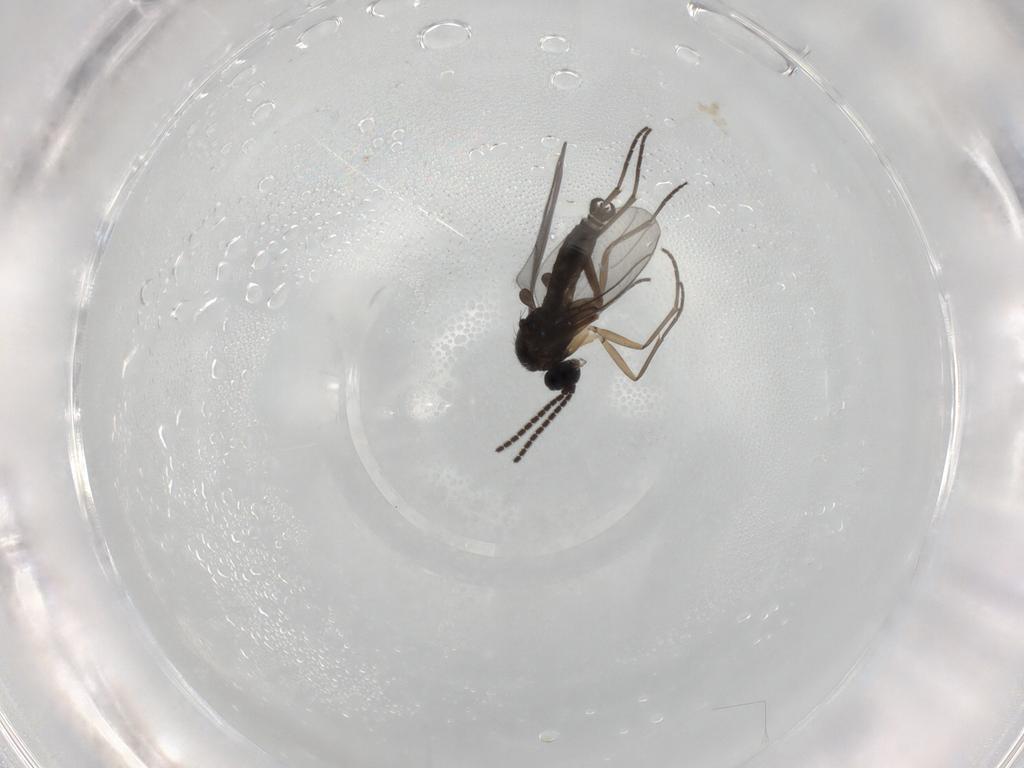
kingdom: Animalia
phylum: Arthropoda
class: Insecta
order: Diptera
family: Sciaridae
